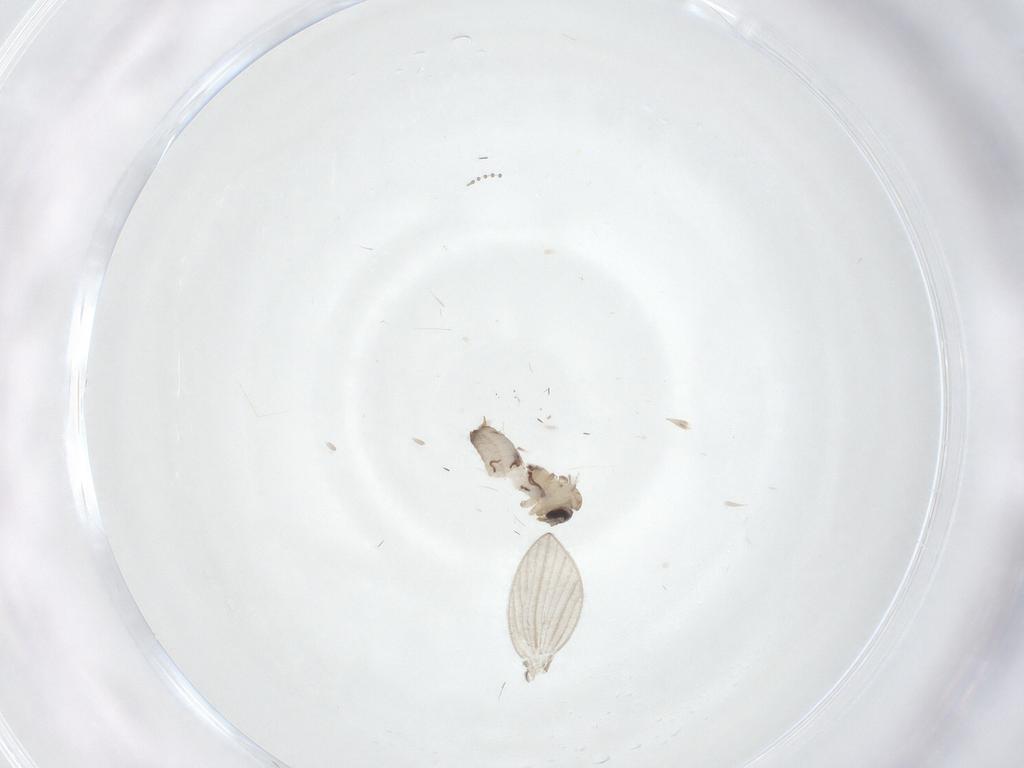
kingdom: Animalia
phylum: Arthropoda
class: Insecta
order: Diptera
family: Psychodidae
